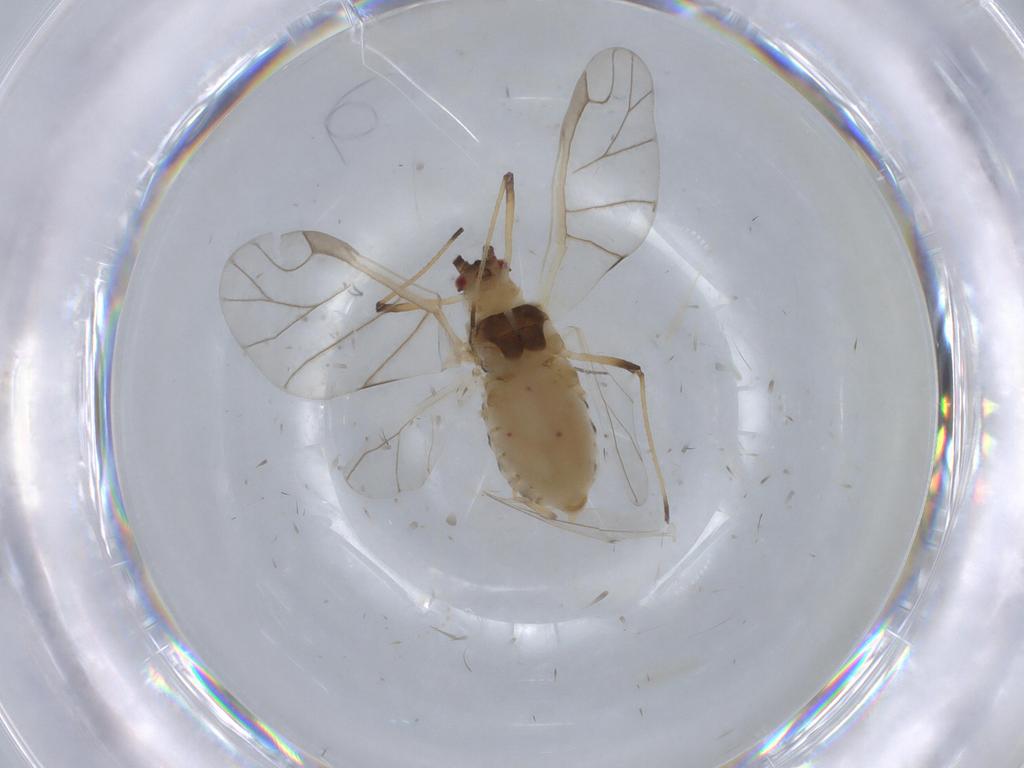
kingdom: Animalia
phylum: Arthropoda
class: Insecta
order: Hemiptera
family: Aphididae
